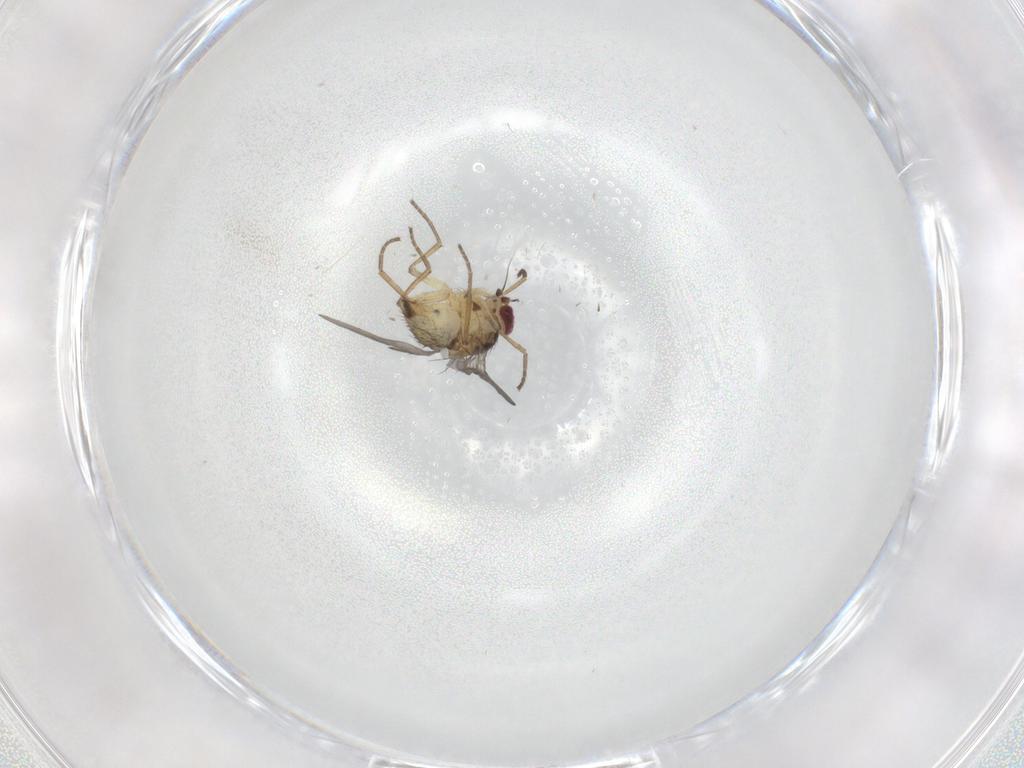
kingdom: Animalia
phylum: Arthropoda
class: Insecta
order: Diptera
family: Agromyzidae
